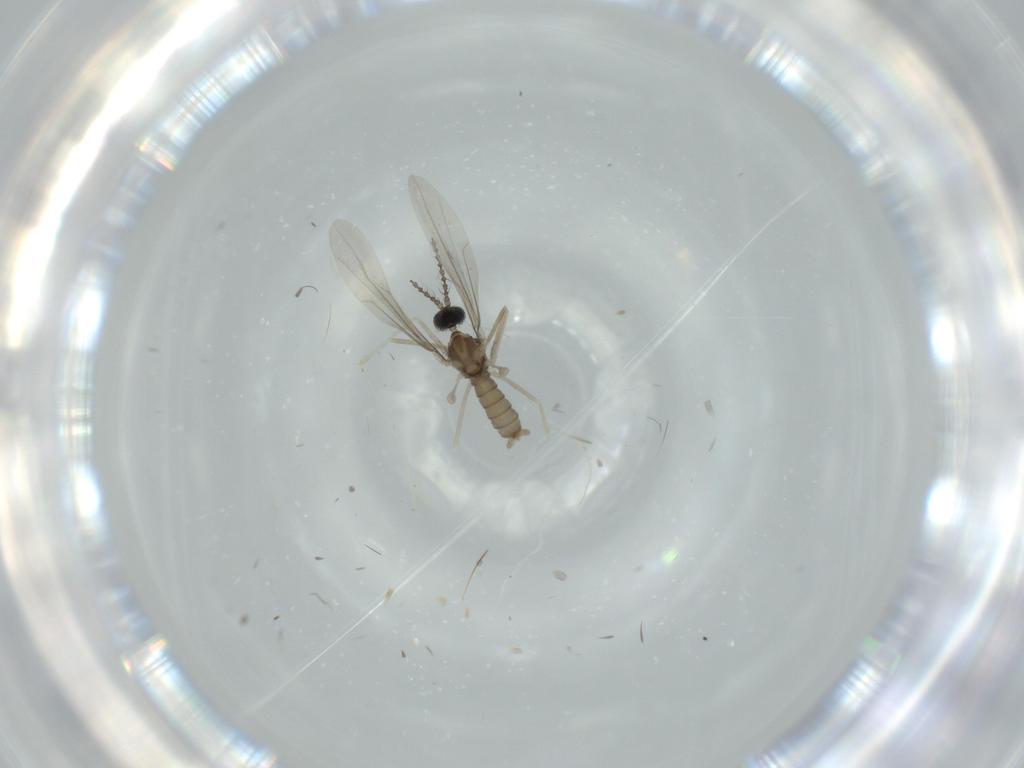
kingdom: Animalia
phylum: Arthropoda
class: Insecta
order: Diptera
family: Cecidomyiidae
